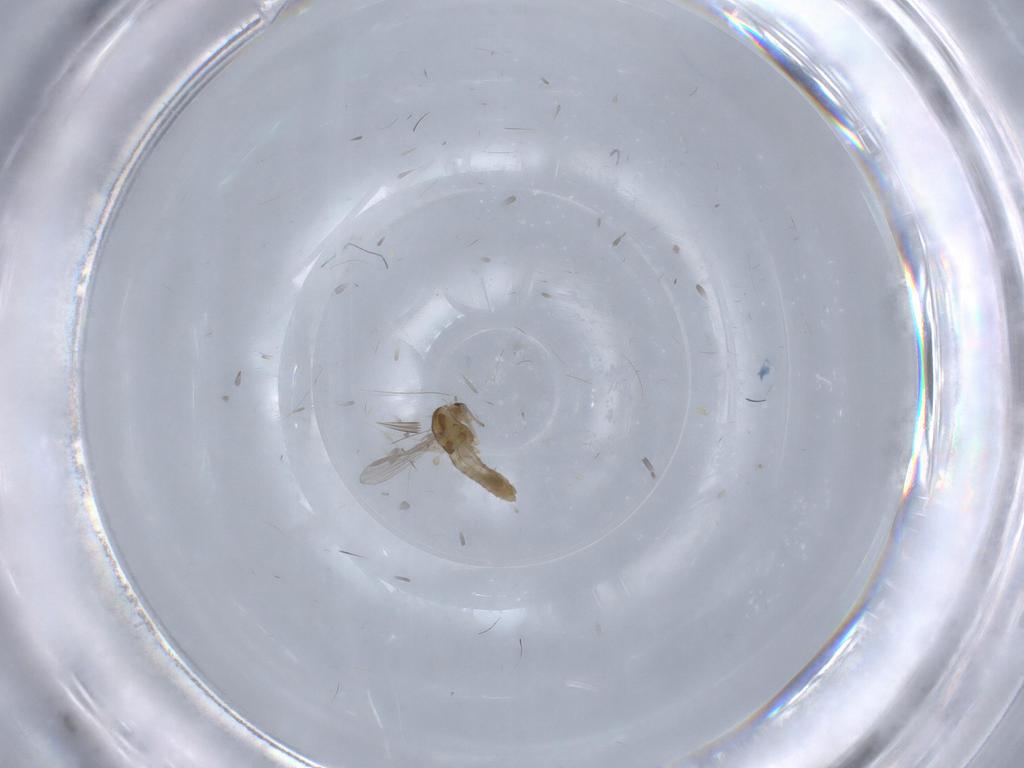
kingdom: Animalia
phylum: Arthropoda
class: Insecta
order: Diptera
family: Chironomidae
